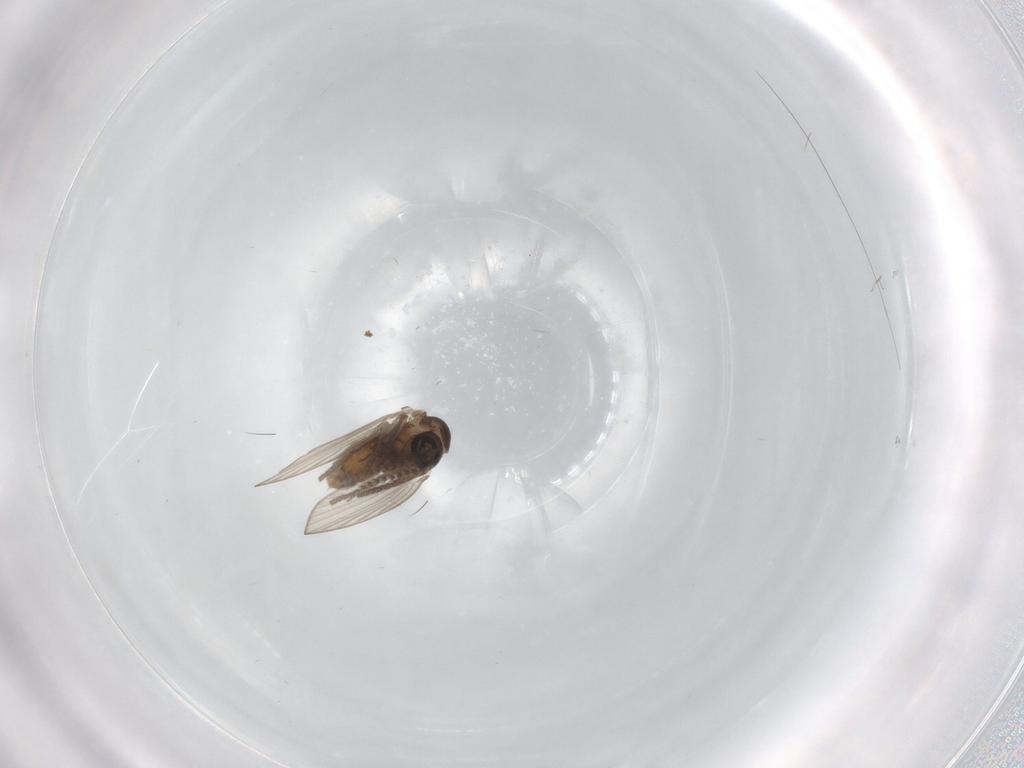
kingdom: Animalia
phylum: Arthropoda
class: Insecta
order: Diptera
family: Psychodidae
